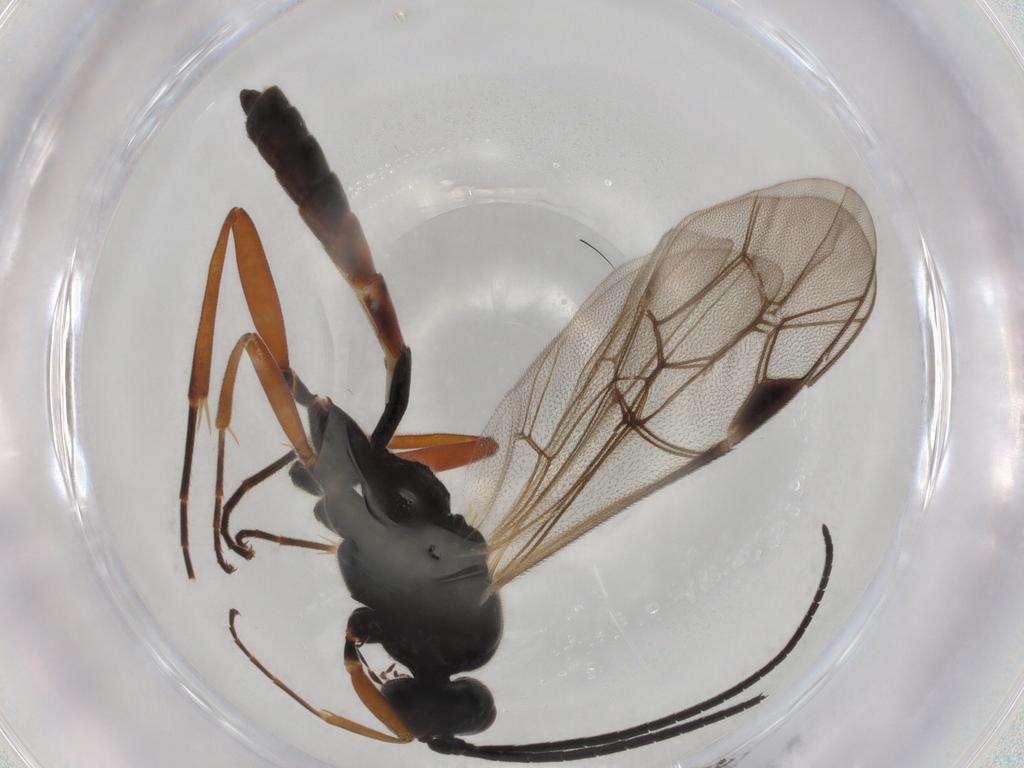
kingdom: Animalia
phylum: Arthropoda
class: Insecta
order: Hymenoptera
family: Formicidae
